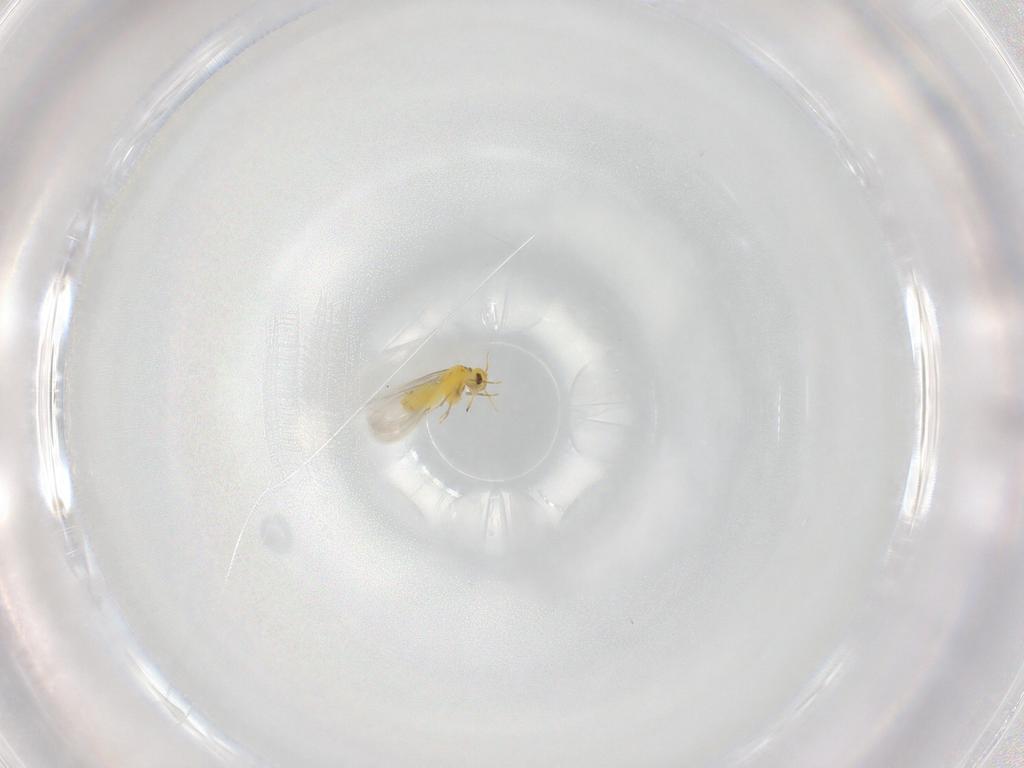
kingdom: Animalia
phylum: Arthropoda
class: Insecta
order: Hemiptera
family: Aleyrodidae
